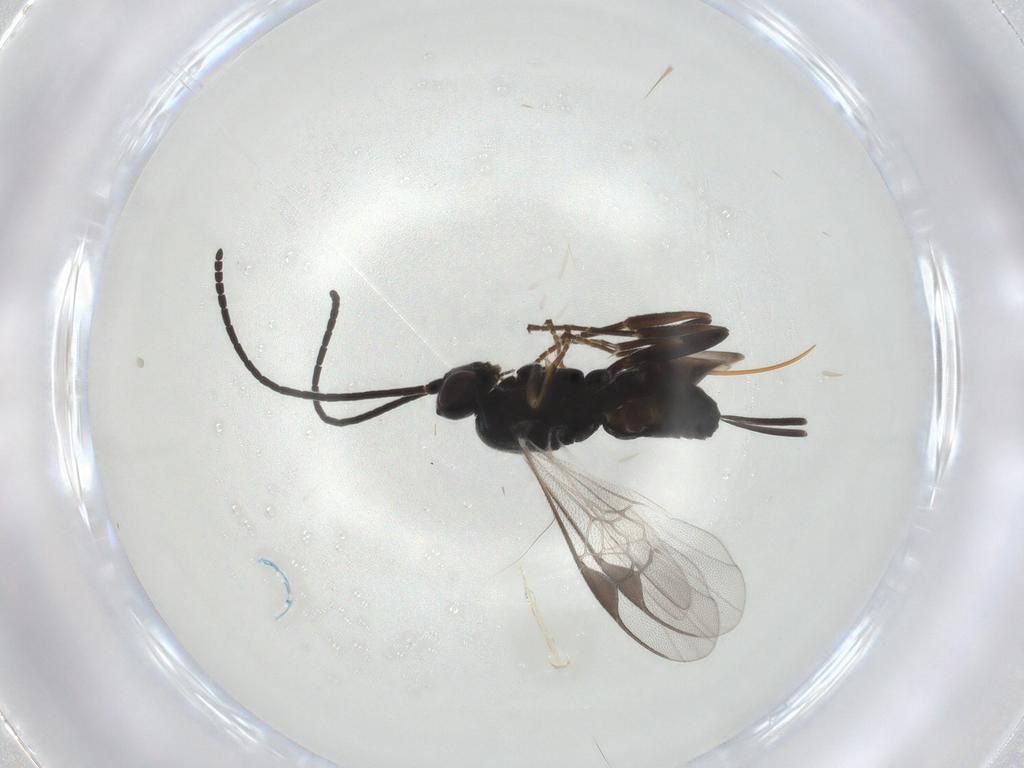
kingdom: Animalia
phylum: Arthropoda
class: Insecta
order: Hymenoptera
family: Braconidae
